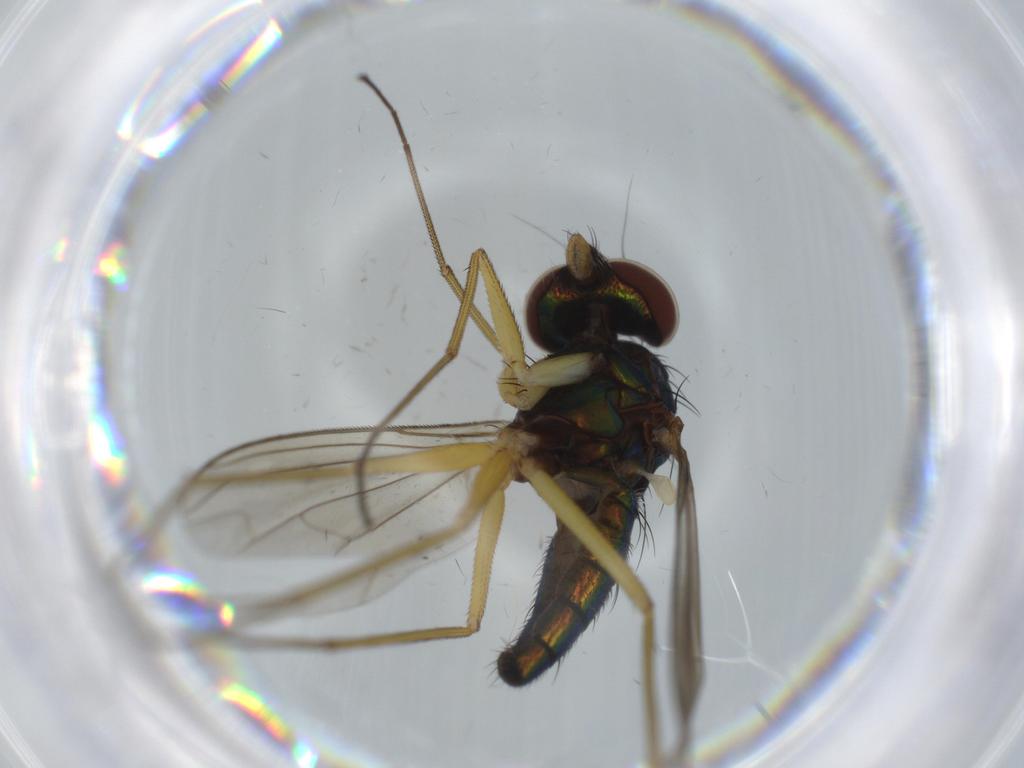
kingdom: Animalia
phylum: Arthropoda
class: Insecta
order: Diptera
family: Dolichopodidae
